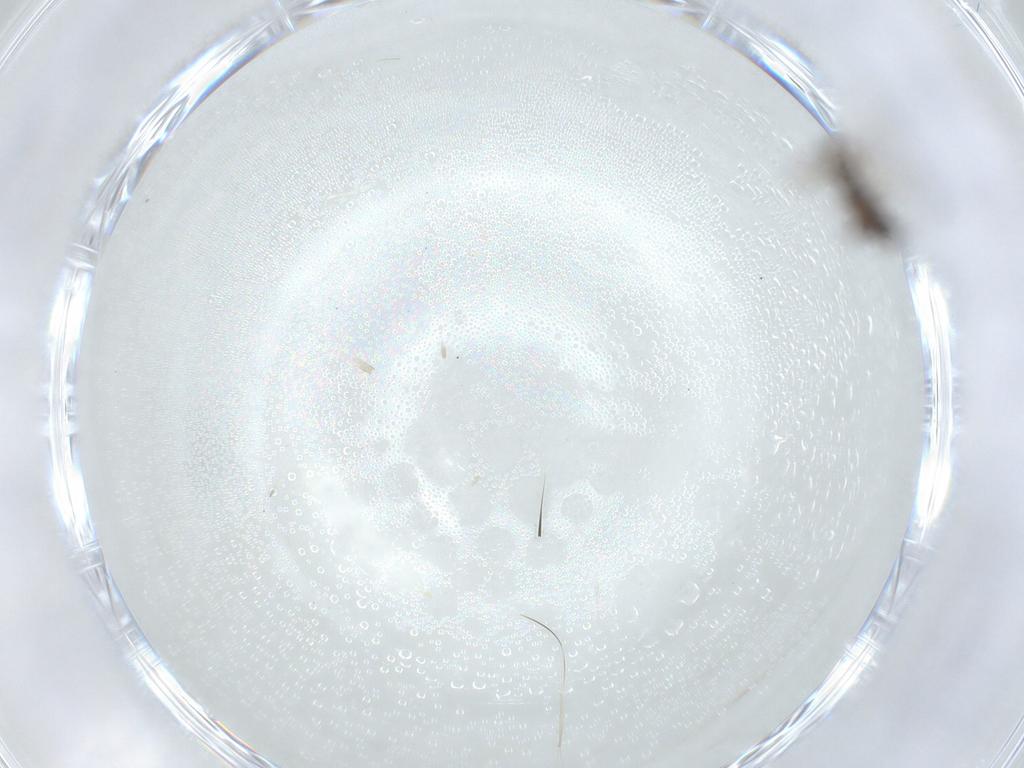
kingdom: Animalia
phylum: Arthropoda
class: Insecta
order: Diptera
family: Sciaridae
